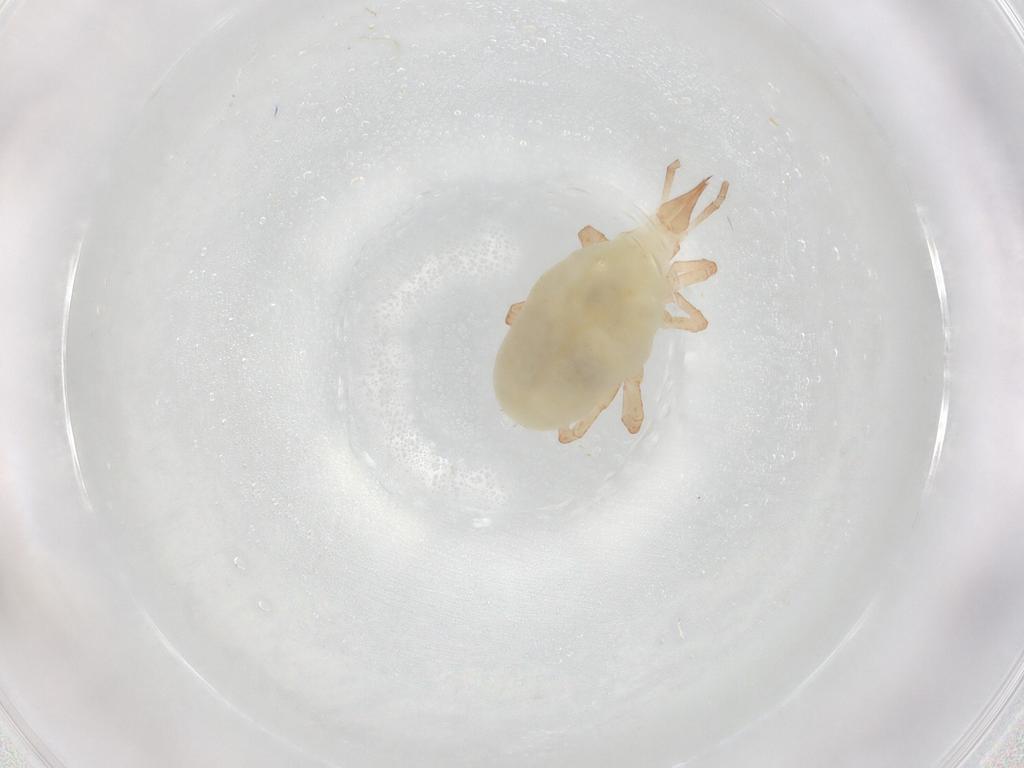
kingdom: Animalia
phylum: Arthropoda
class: Arachnida
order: Trombidiformes
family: Bdellidae
